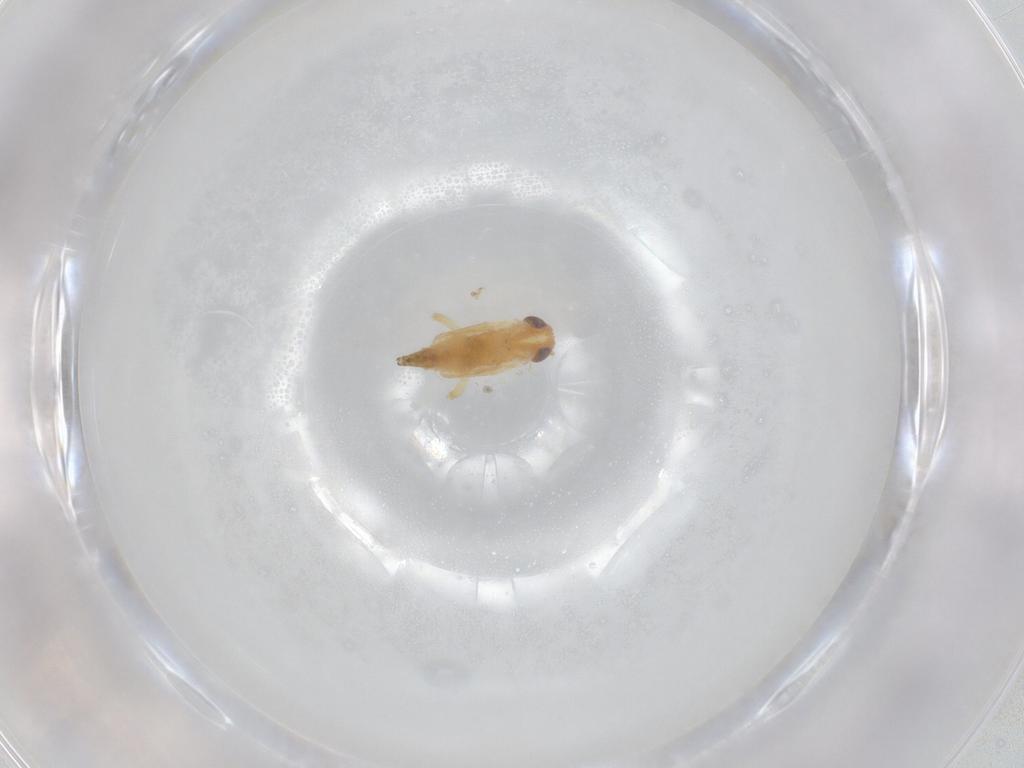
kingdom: Animalia
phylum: Arthropoda
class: Insecta
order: Hemiptera
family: Cicadellidae
